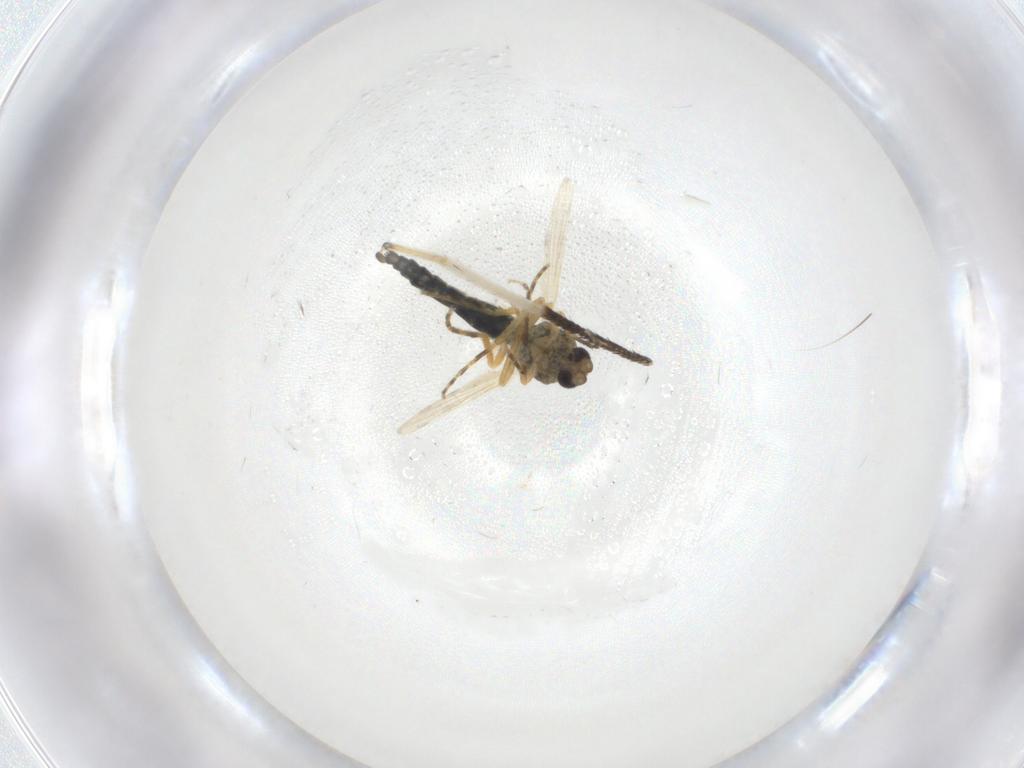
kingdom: Animalia
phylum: Arthropoda
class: Insecta
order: Diptera
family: Ceratopogonidae
